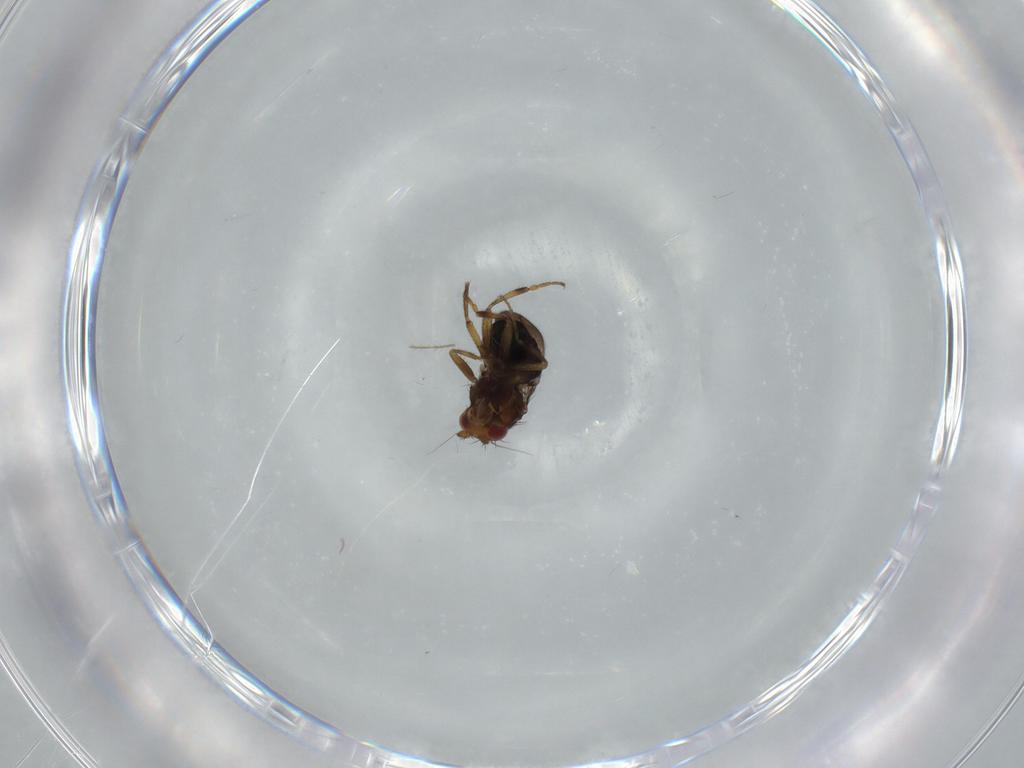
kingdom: Animalia
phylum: Arthropoda
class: Insecta
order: Diptera
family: Sphaeroceridae
